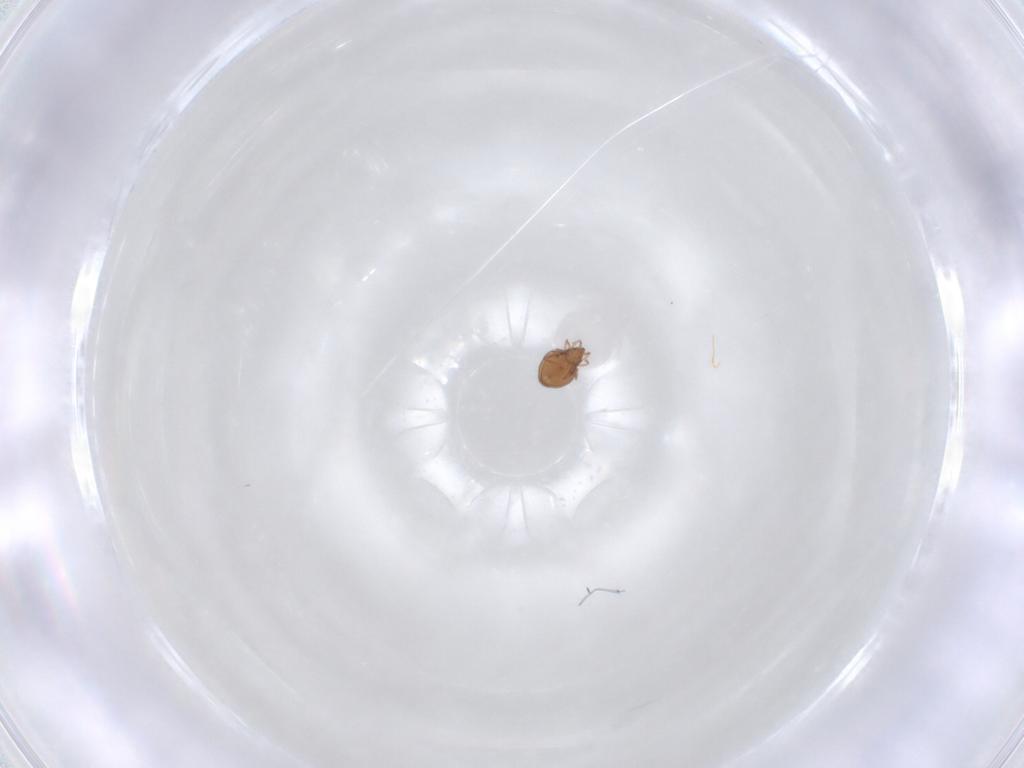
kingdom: Animalia
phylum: Arthropoda
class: Arachnida
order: Sarcoptiformes
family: Oribatulidae
